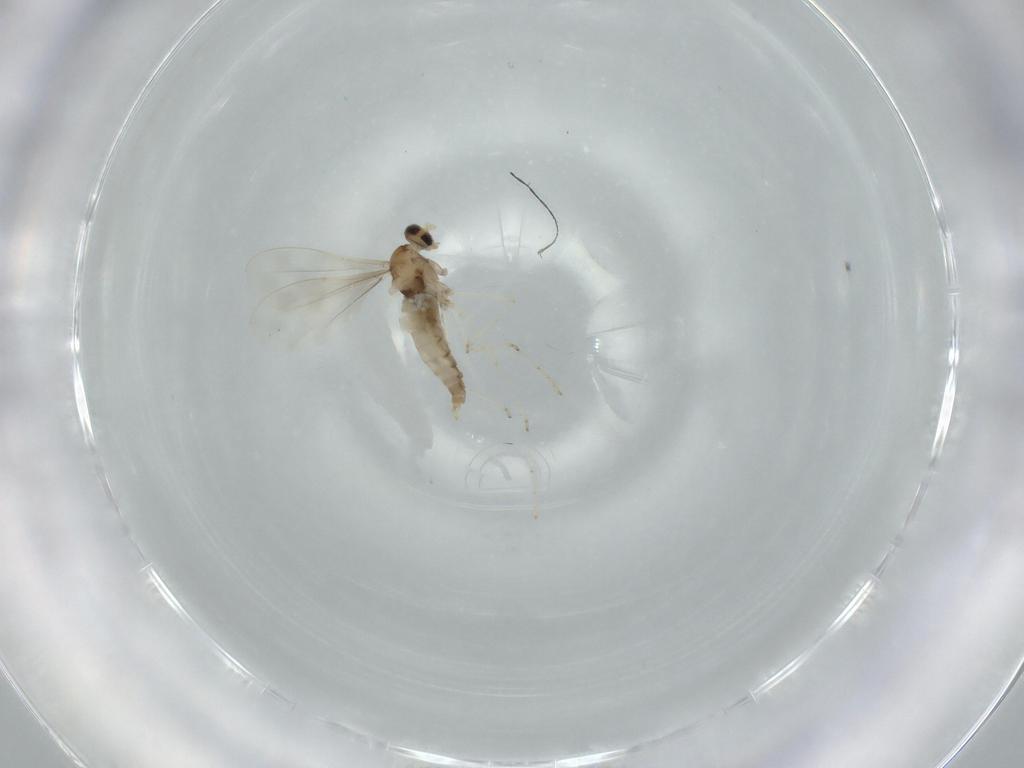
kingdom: Animalia
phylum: Arthropoda
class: Insecta
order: Diptera
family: Cecidomyiidae
